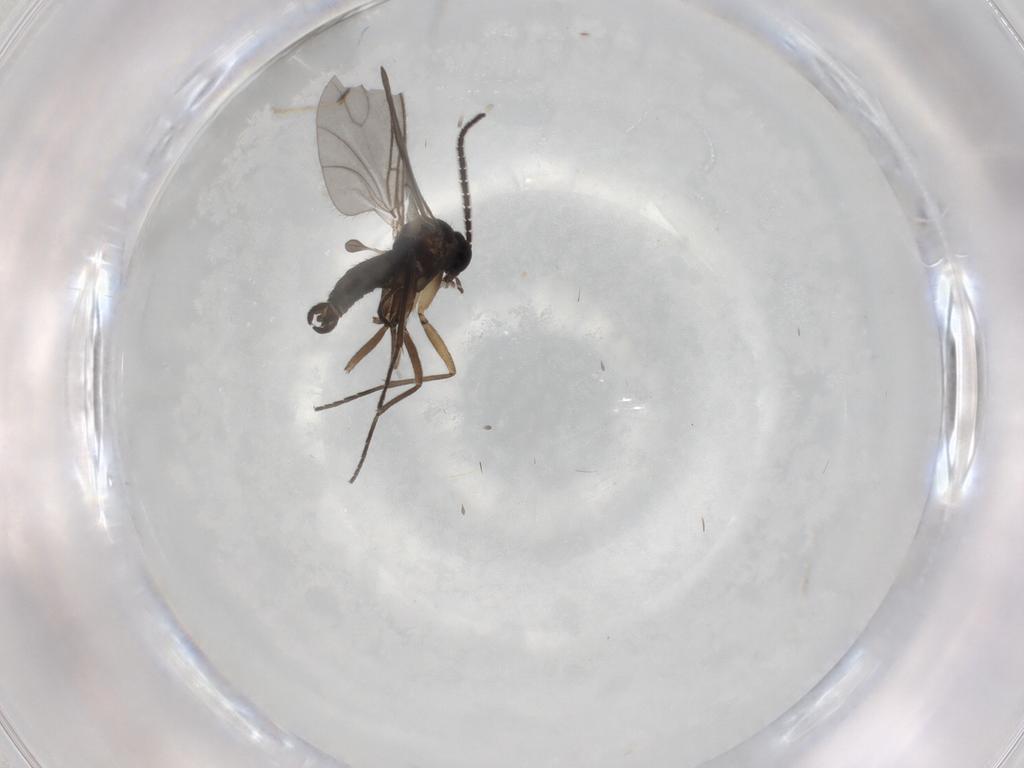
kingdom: Animalia
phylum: Arthropoda
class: Insecta
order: Diptera
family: Sciaridae
